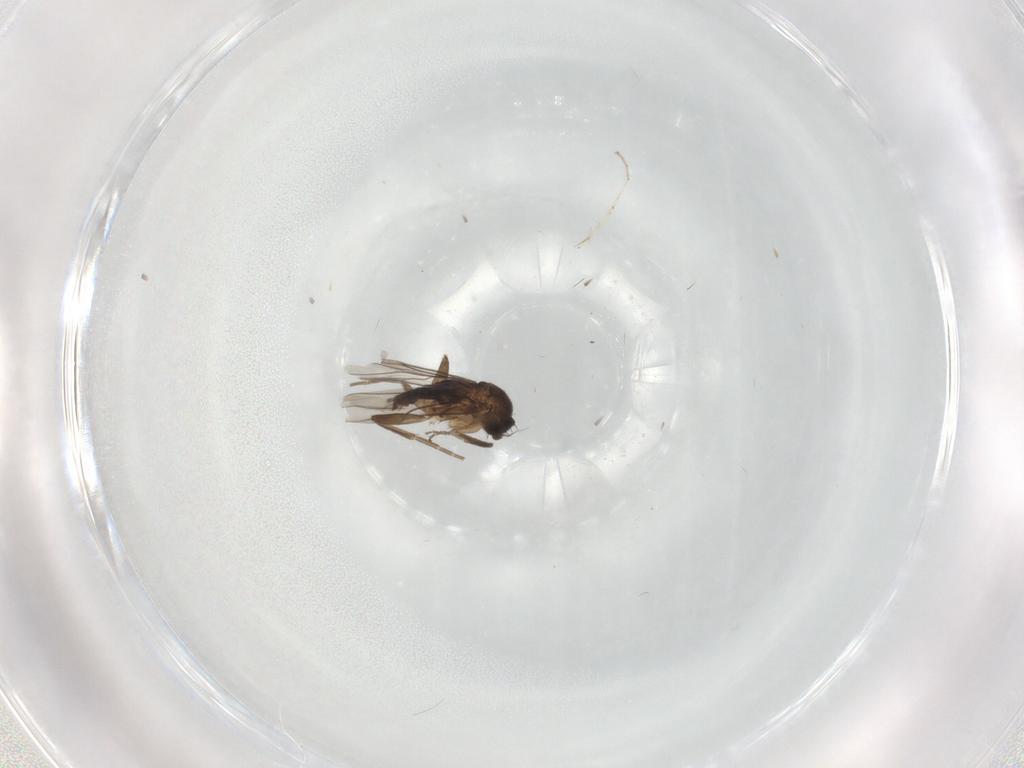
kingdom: Animalia
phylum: Arthropoda
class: Insecta
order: Diptera
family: Phoridae
